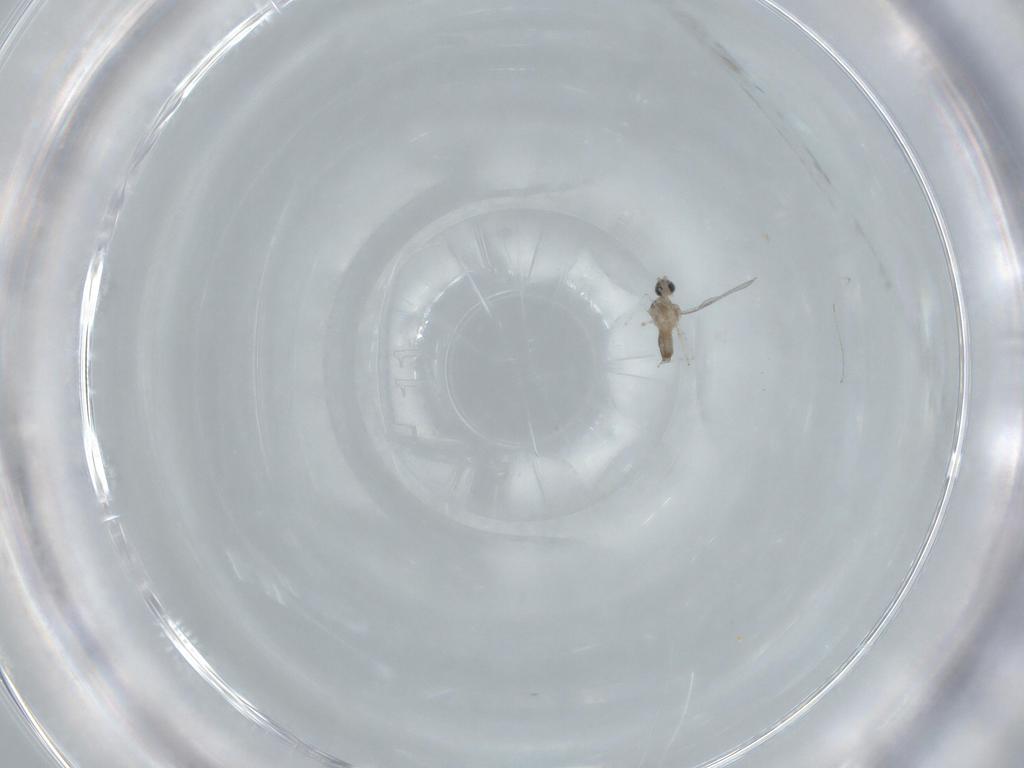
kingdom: Animalia
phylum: Arthropoda
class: Insecta
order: Diptera
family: Cecidomyiidae
